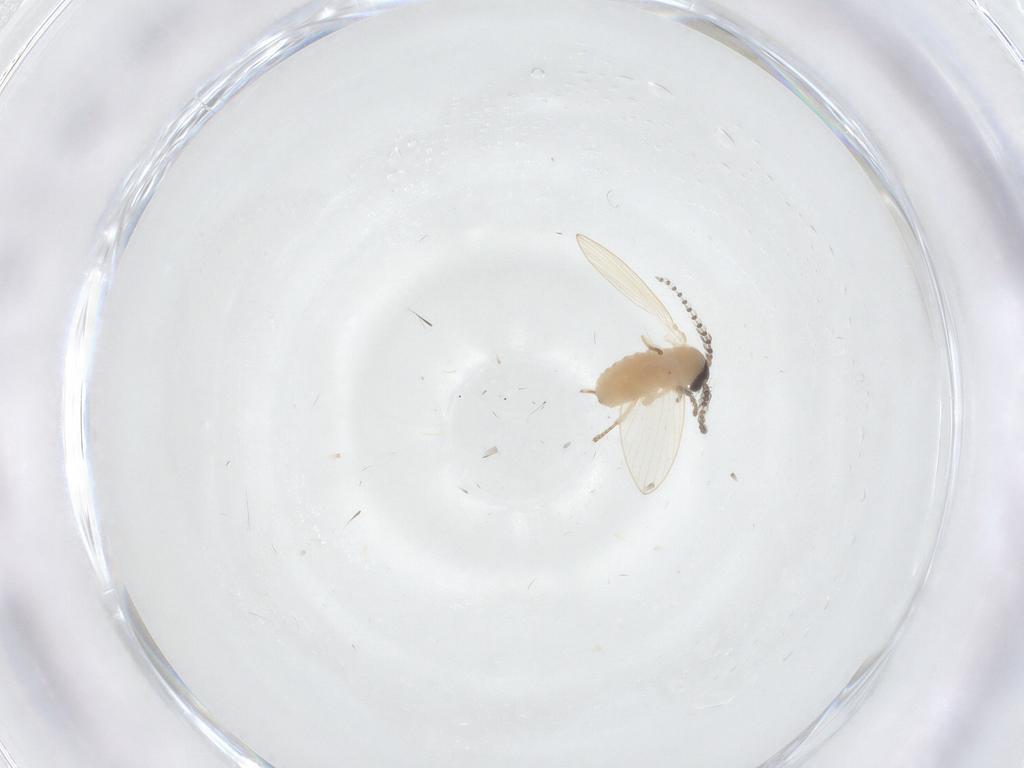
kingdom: Animalia
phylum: Arthropoda
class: Insecta
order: Diptera
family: Psychodidae
